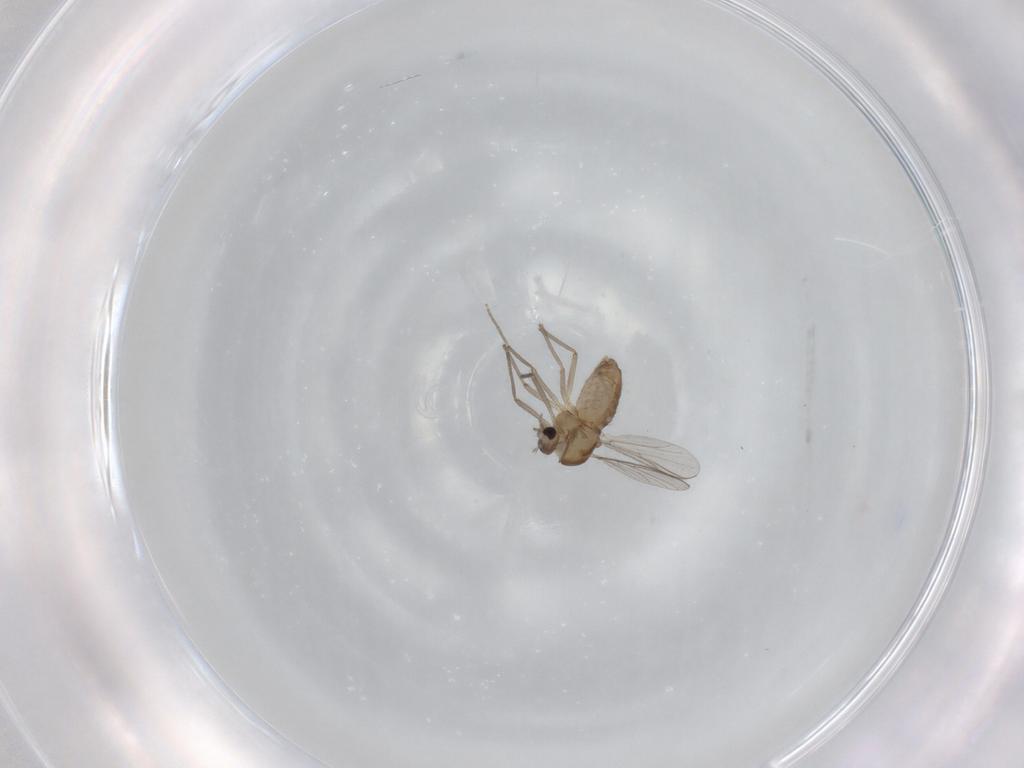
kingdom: Animalia
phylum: Arthropoda
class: Insecta
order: Diptera
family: Chironomidae
